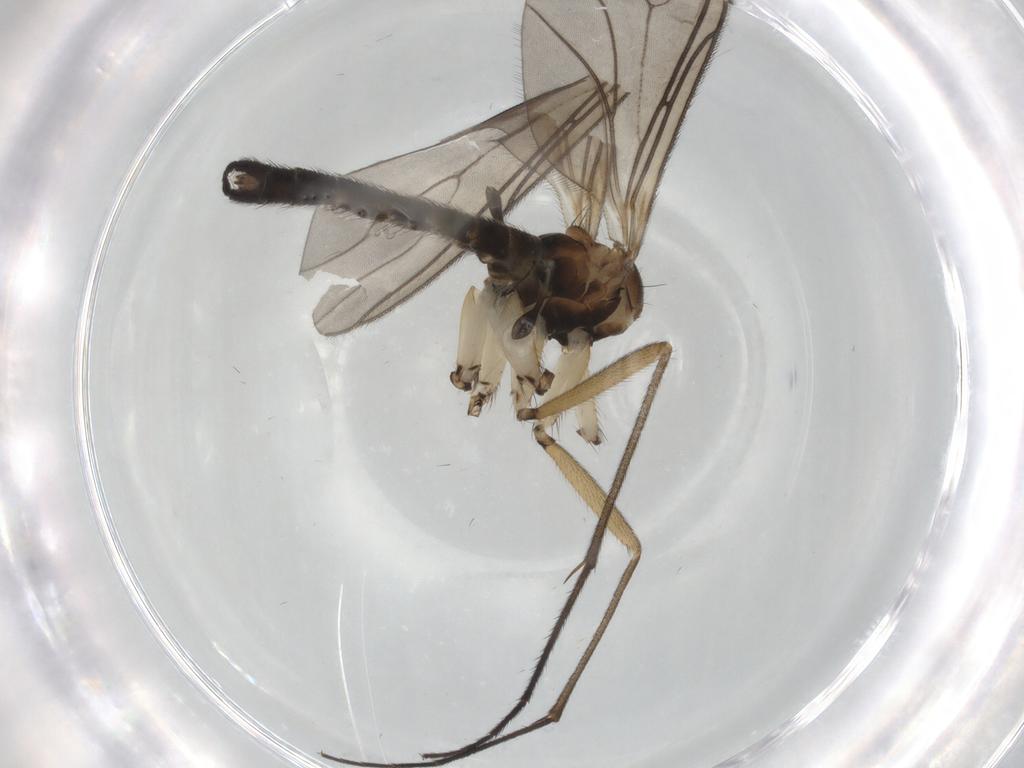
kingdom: Animalia
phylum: Arthropoda
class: Insecta
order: Diptera
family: Sciaridae
